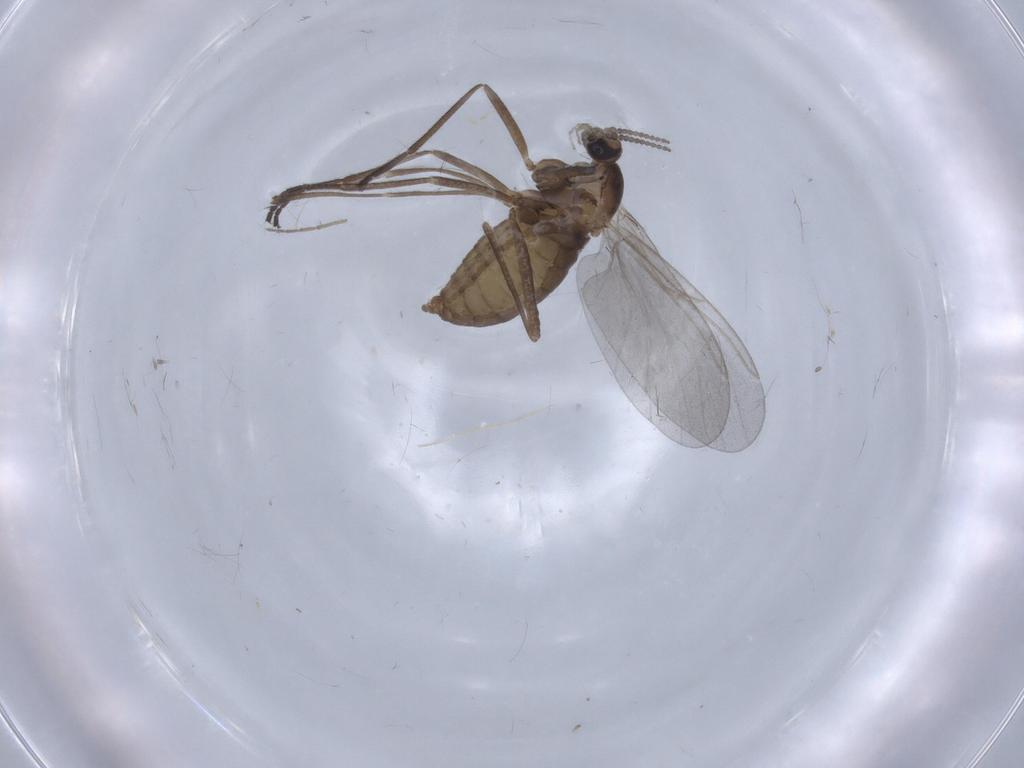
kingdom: Animalia
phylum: Arthropoda
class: Insecta
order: Diptera
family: Cecidomyiidae
